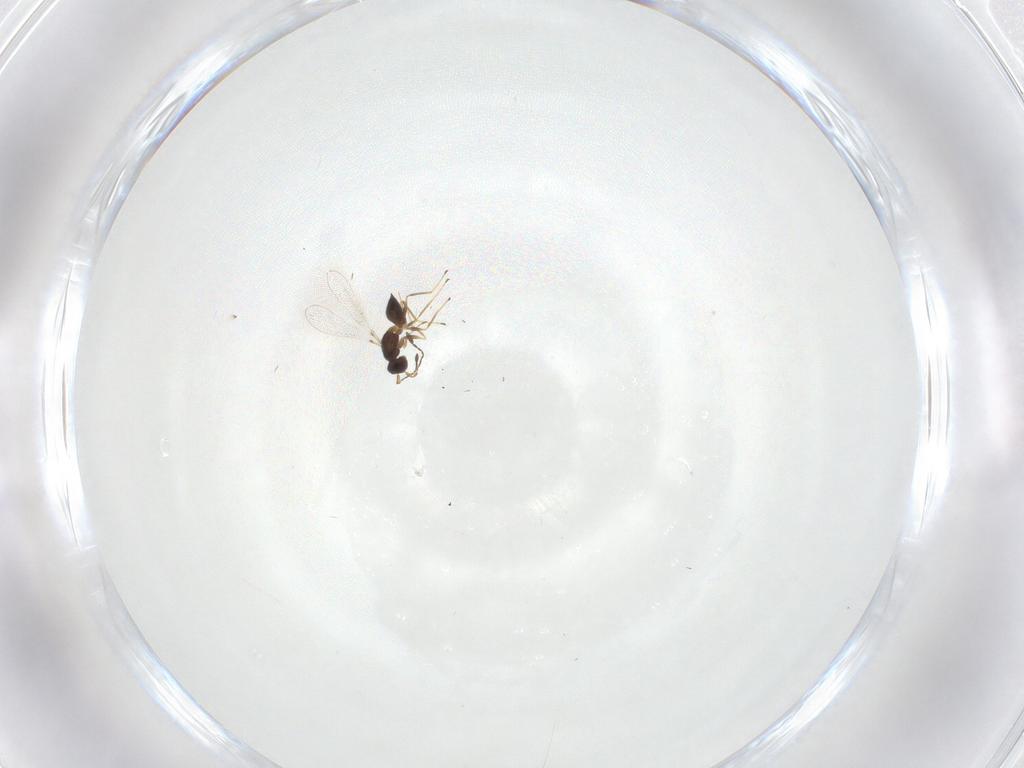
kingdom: Animalia
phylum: Arthropoda
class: Insecta
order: Hymenoptera
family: Mymaridae
